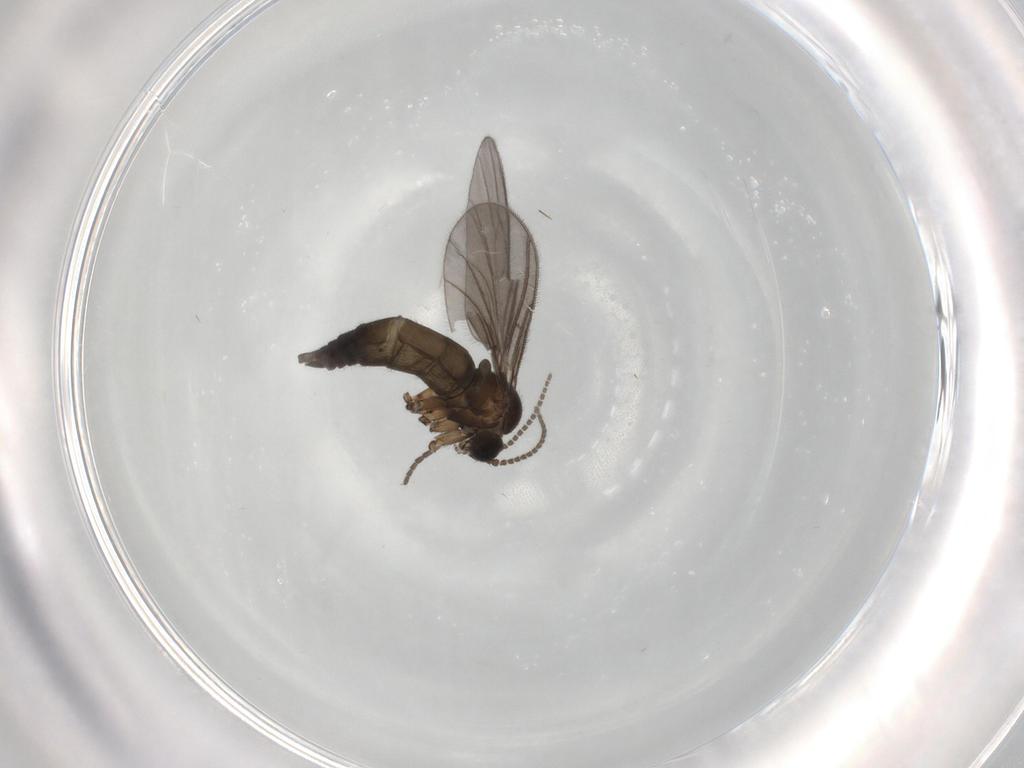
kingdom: Animalia
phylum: Arthropoda
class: Insecta
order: Diptera
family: Sciaridae
